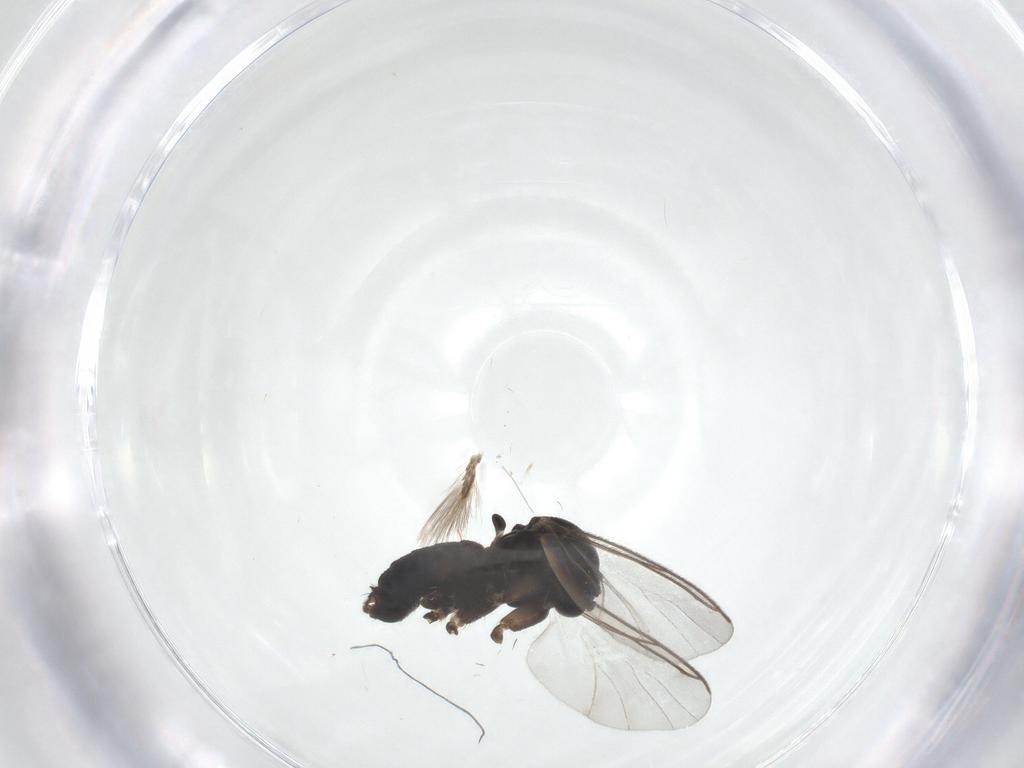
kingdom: Animalia
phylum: Arthropoda
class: Insecta
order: Diptera
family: Mycetophilidae
